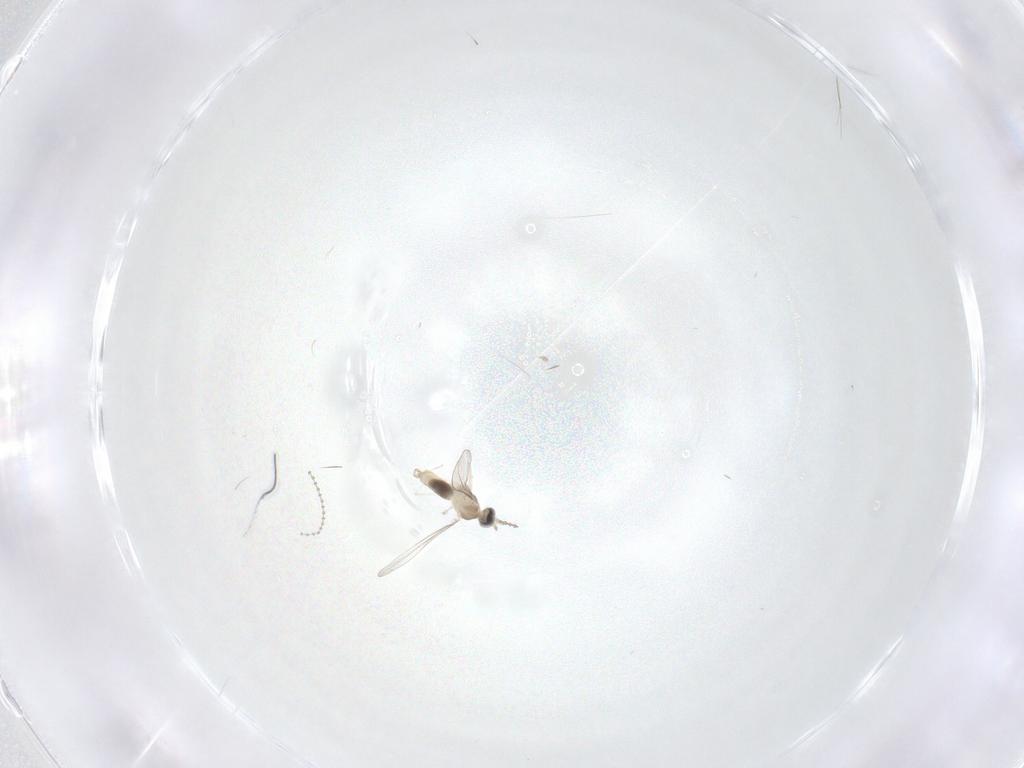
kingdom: Animalia
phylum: Arthropoda
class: Insecta
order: Diptera
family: Cecidomyiidae
